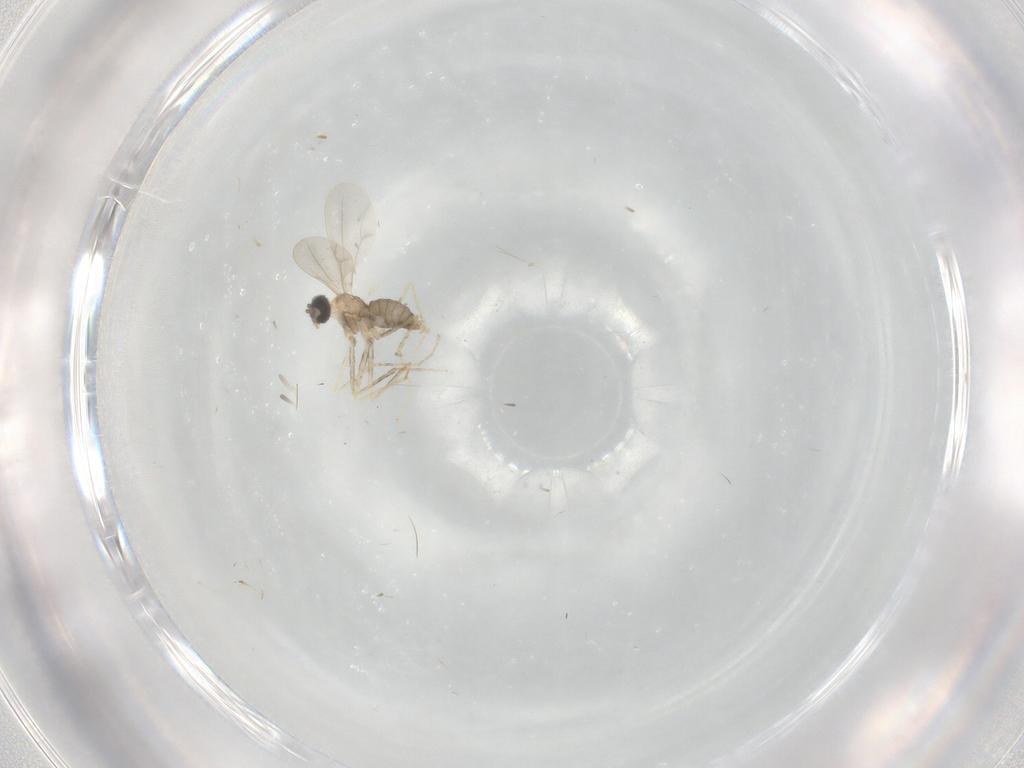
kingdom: Animalia
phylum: Arthropoda
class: Insecta
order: Diptera
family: Cecidomyiidae
